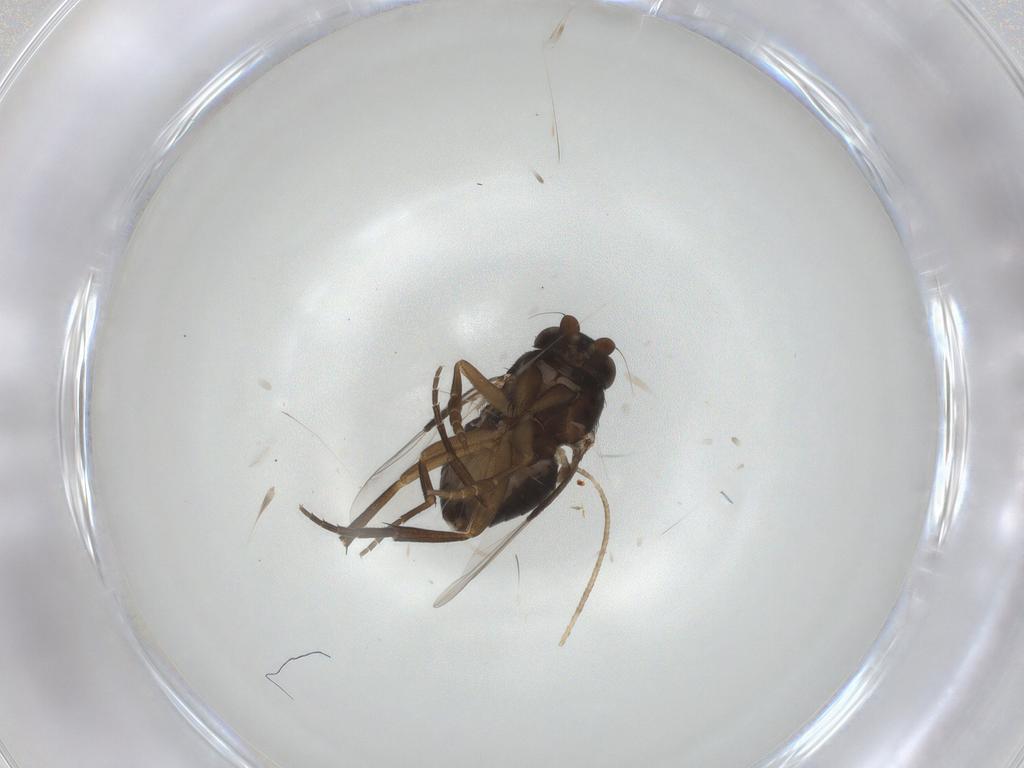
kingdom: Animalia
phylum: Arthropoda
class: Insecta
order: Diptera
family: Phoridae
